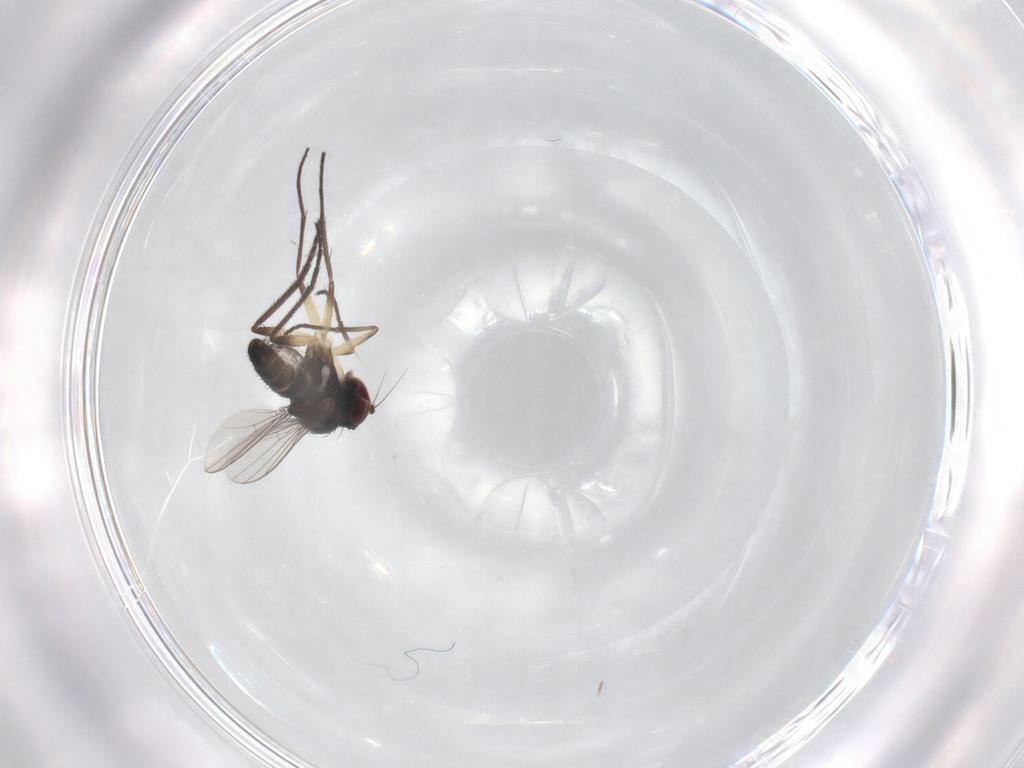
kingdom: Animalia
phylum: Arthropoda
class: Insecta
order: Diptera
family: Dolichopodidae
